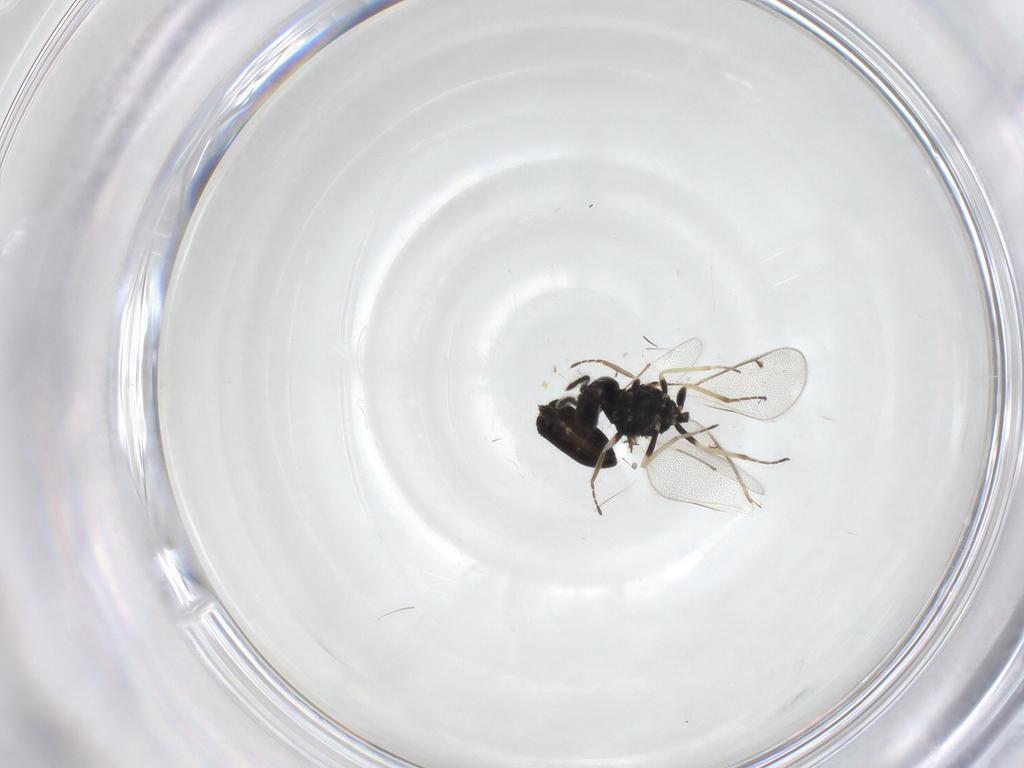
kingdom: Animalia
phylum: Arthropoda
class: Insecta
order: Hymenoptera
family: Eulophidae
